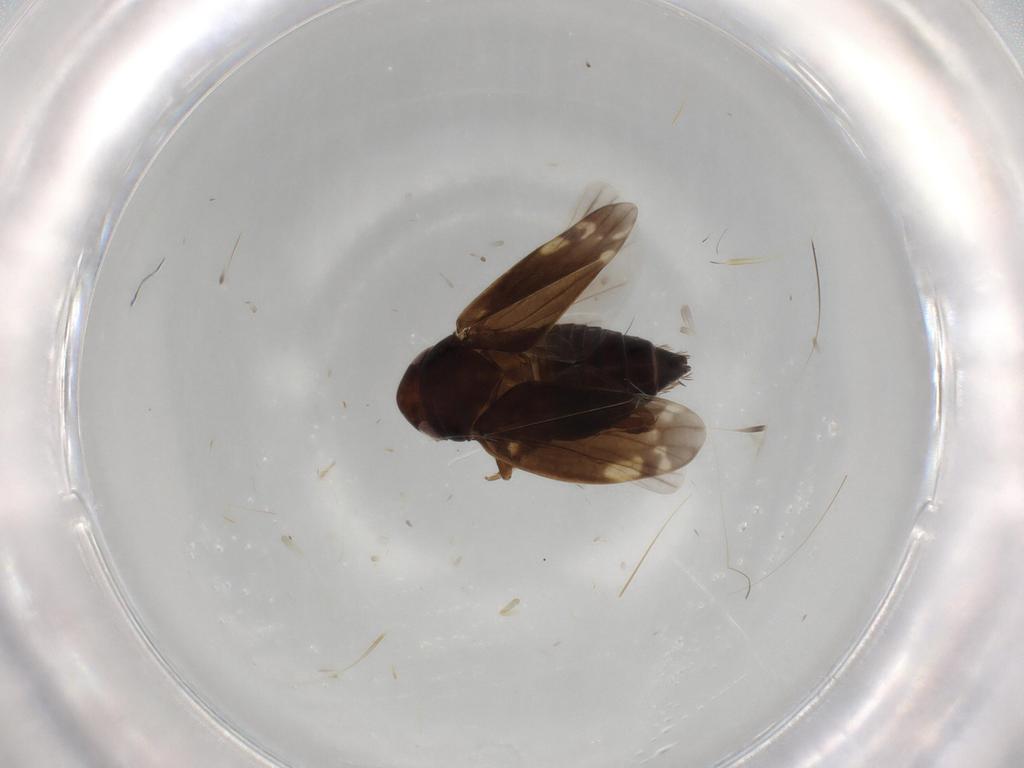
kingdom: Animalia
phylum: Arthropoda
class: Insecta
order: Hemiptera
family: Cicadellidae
